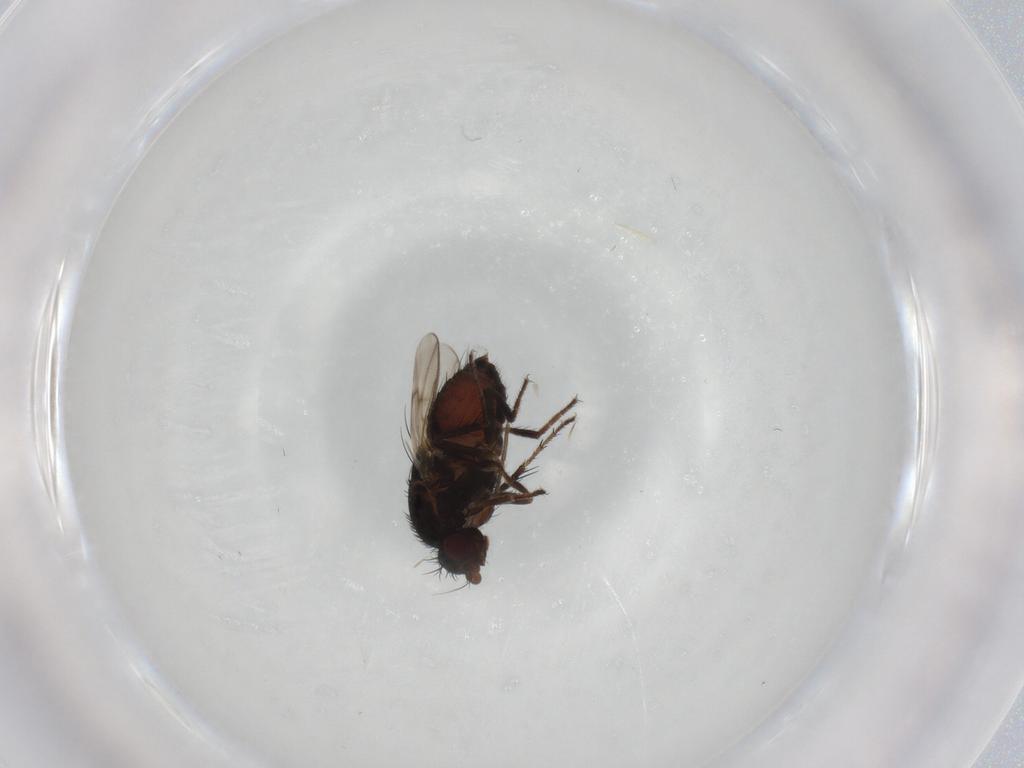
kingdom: Animalia
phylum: Arthropoda
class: Insecta
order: Diptera
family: Sphaeroceridae
